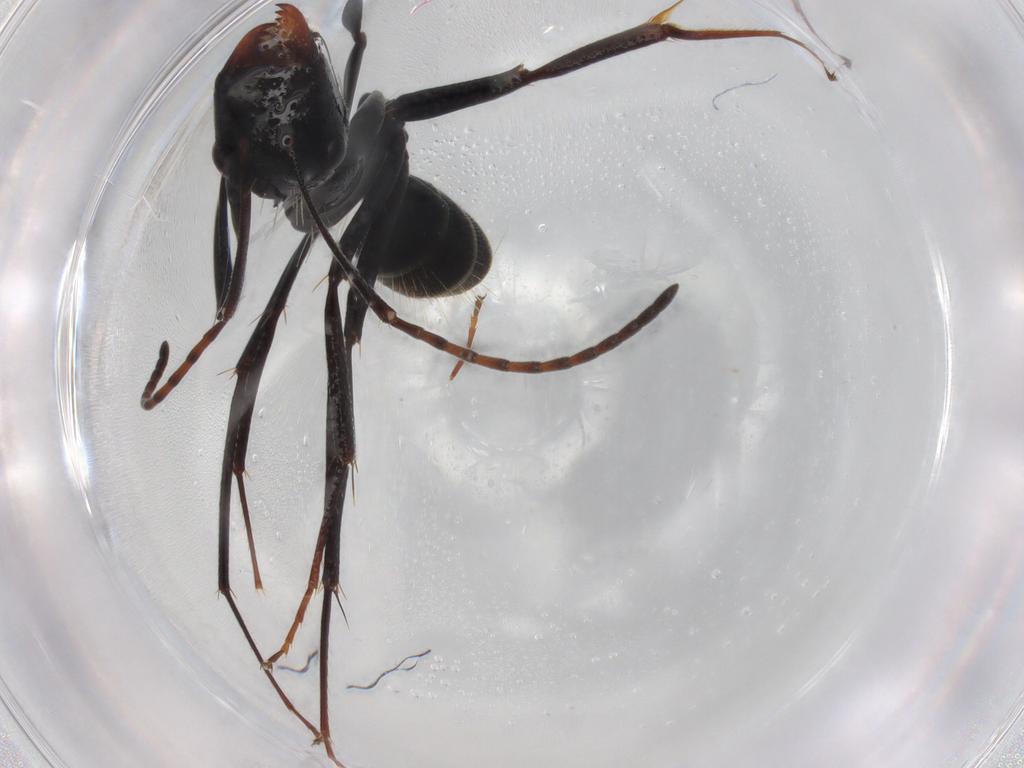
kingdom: Animalia
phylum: Arthropoda
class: Insecta
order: Hymenoptera
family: Formicidae
